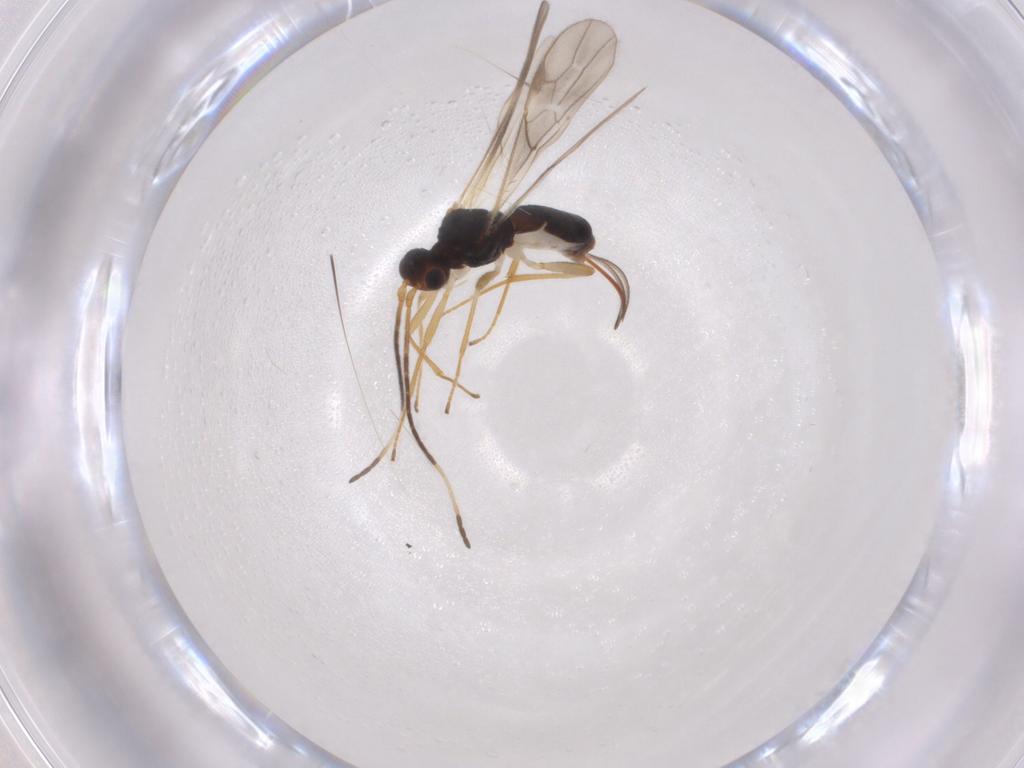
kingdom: Animalia
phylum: Arthropoda
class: Insecta
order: Hymenoptera
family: Braconidae
